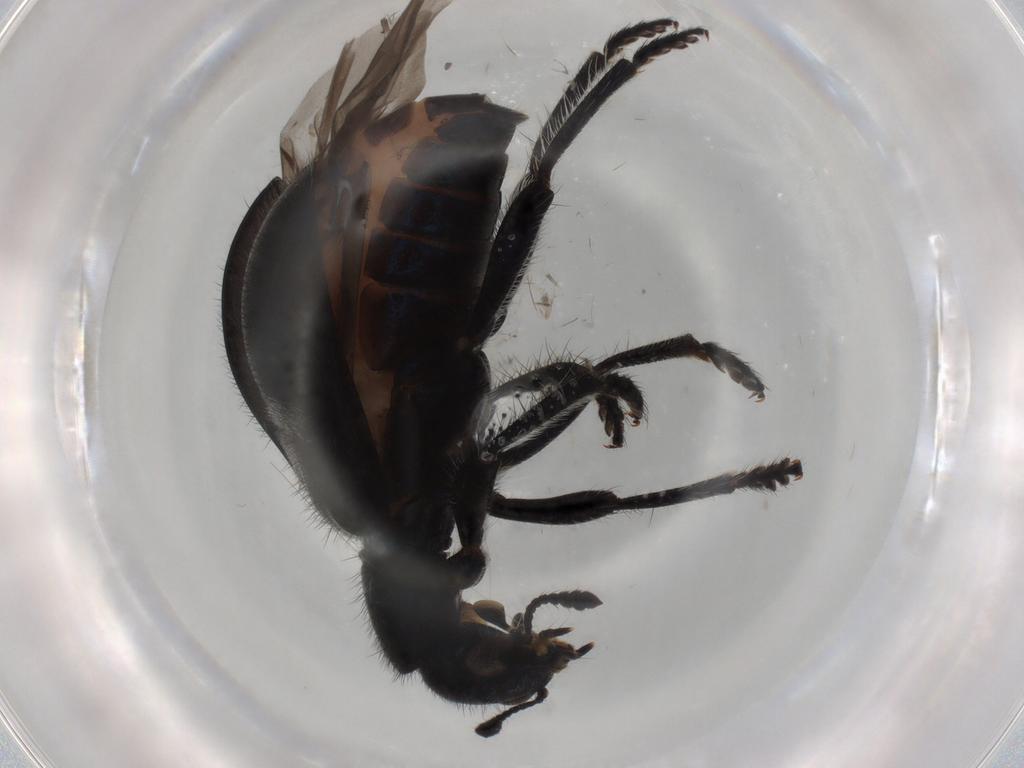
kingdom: Animalia
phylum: Arthropoda
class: Insecta
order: Coleoptera
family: Cleridae
